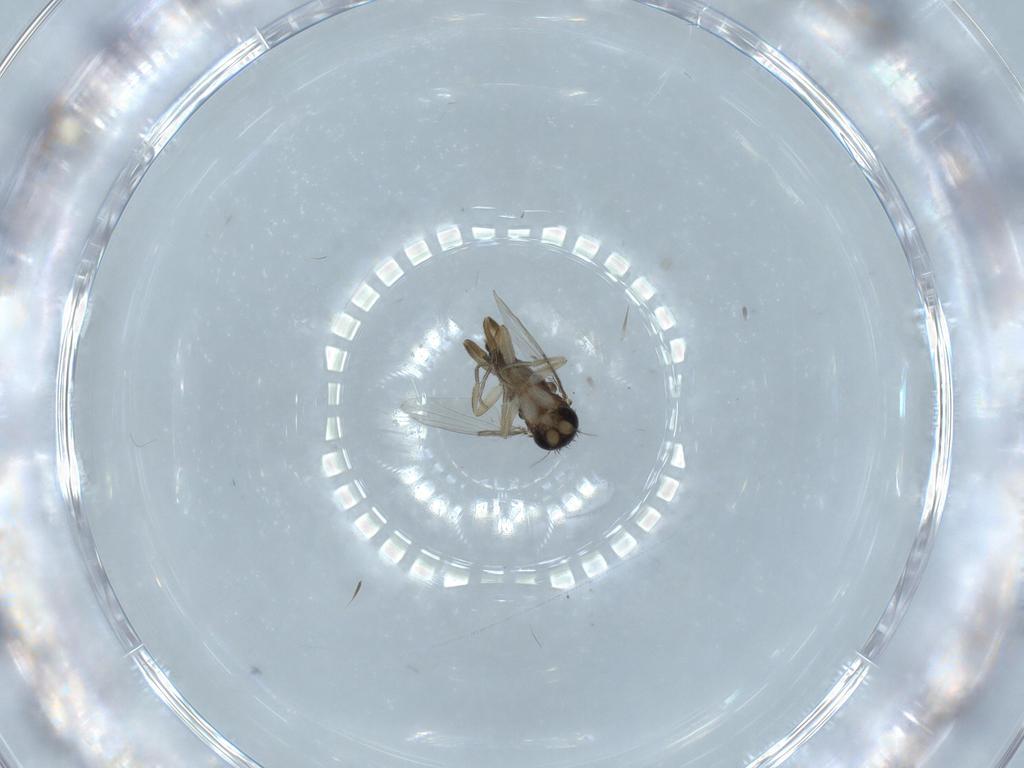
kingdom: Animalia
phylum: Arthropoda
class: Insecta
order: Diptera
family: Phoridae
